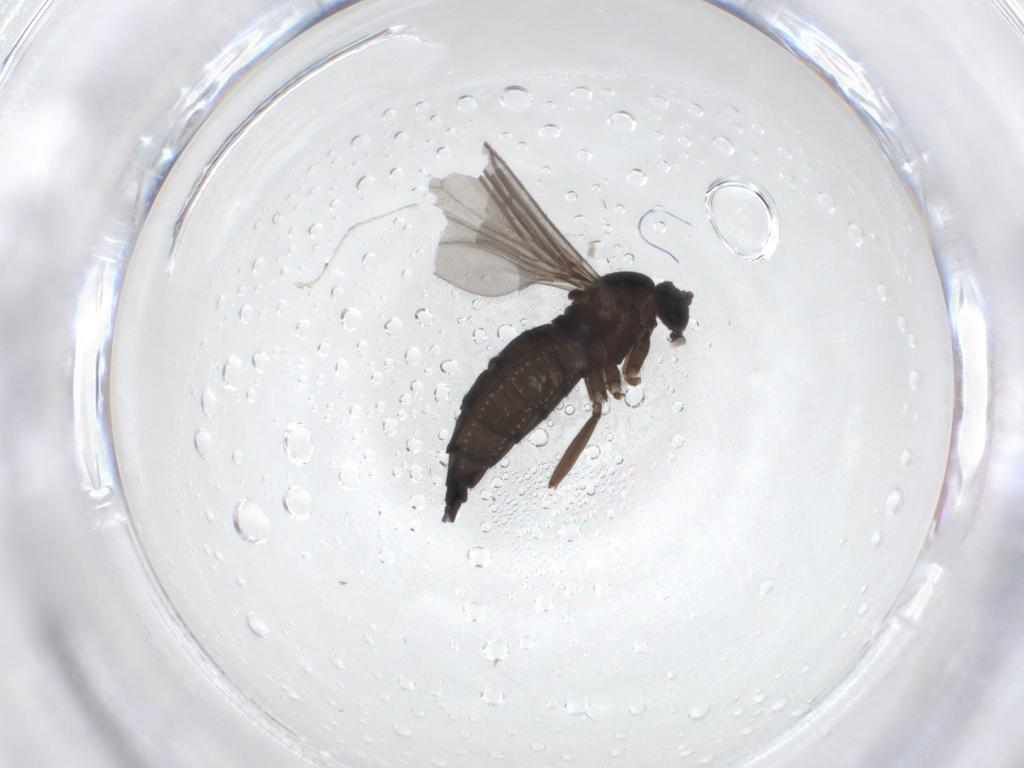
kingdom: Animalia
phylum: Arthropoda
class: Insecta
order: Diptera
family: Sciaridae
